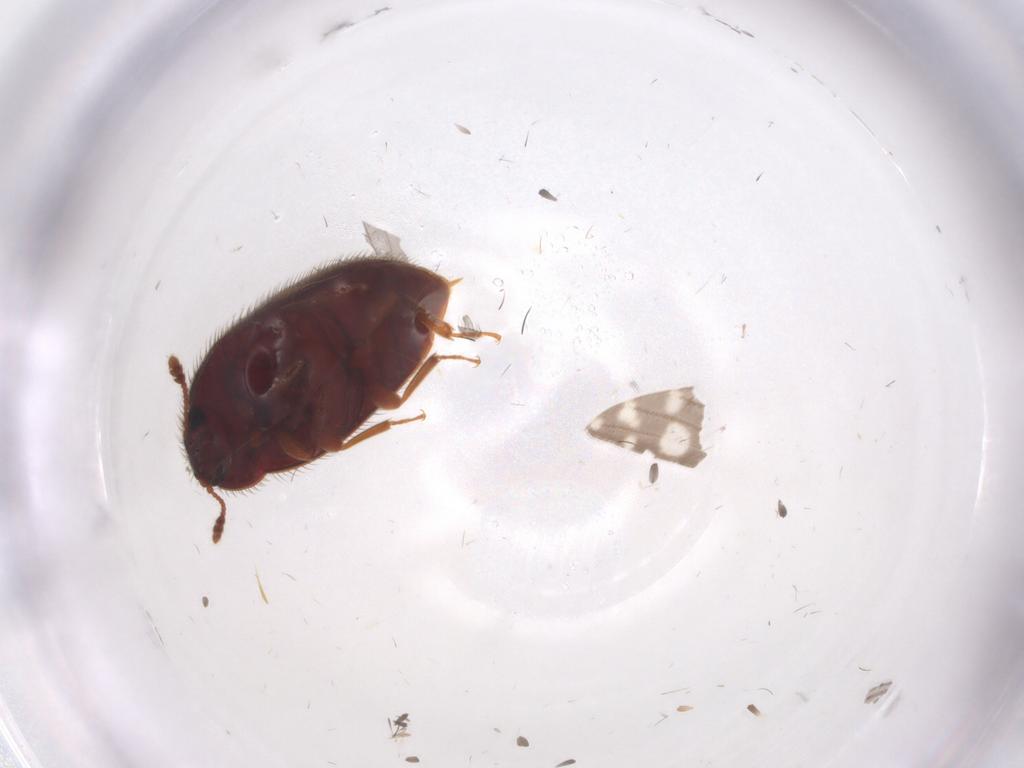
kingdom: Animalia
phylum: Arthropoda
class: Insecta
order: Coleoptera
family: Biphyllidae
